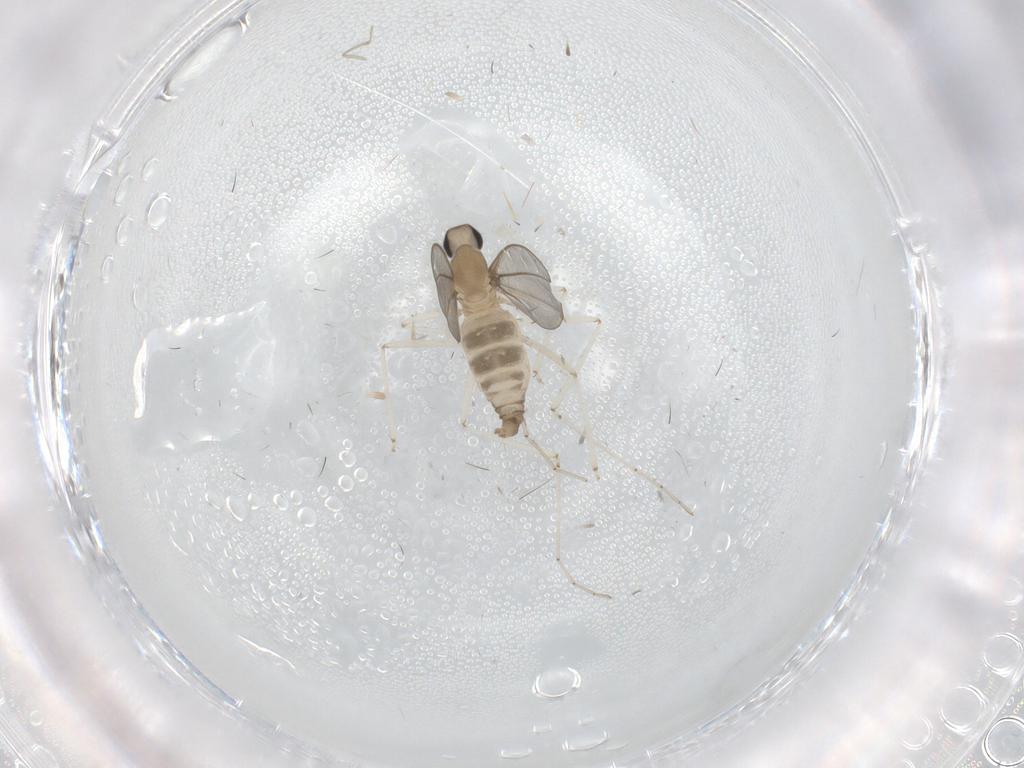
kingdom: Animalia
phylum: Arthropoda
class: Insecta
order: Diptera
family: Cecidomyiidae
